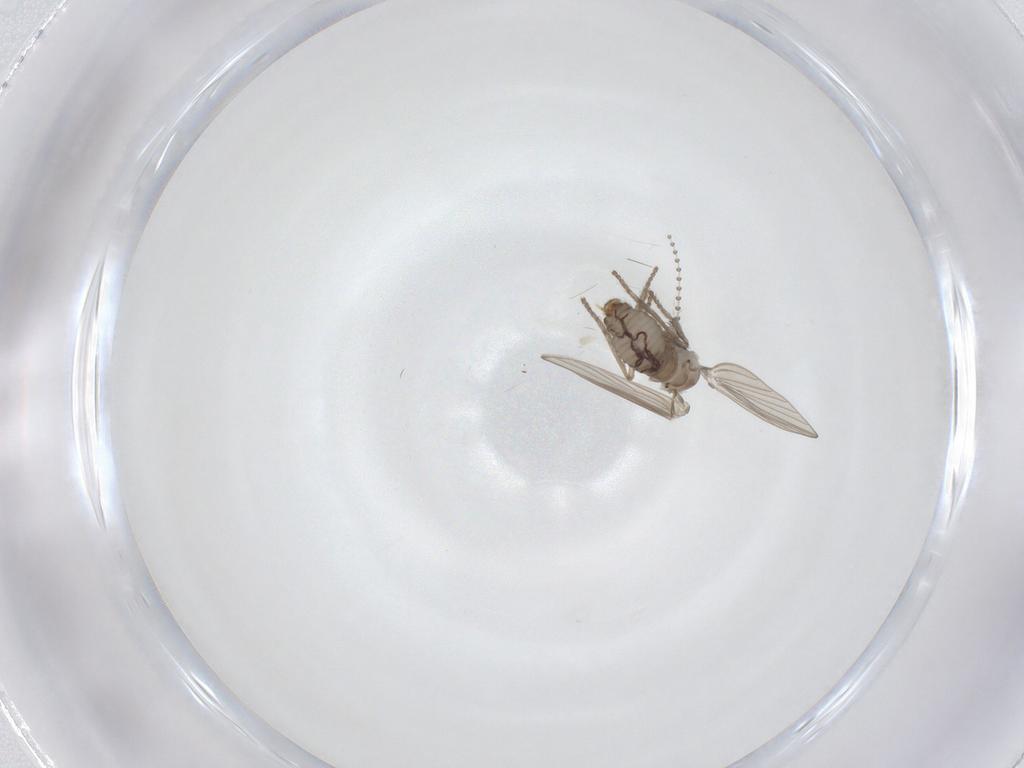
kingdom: Animalia
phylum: Arthropoda
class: Insecta
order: Diptera
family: Psychodidae
